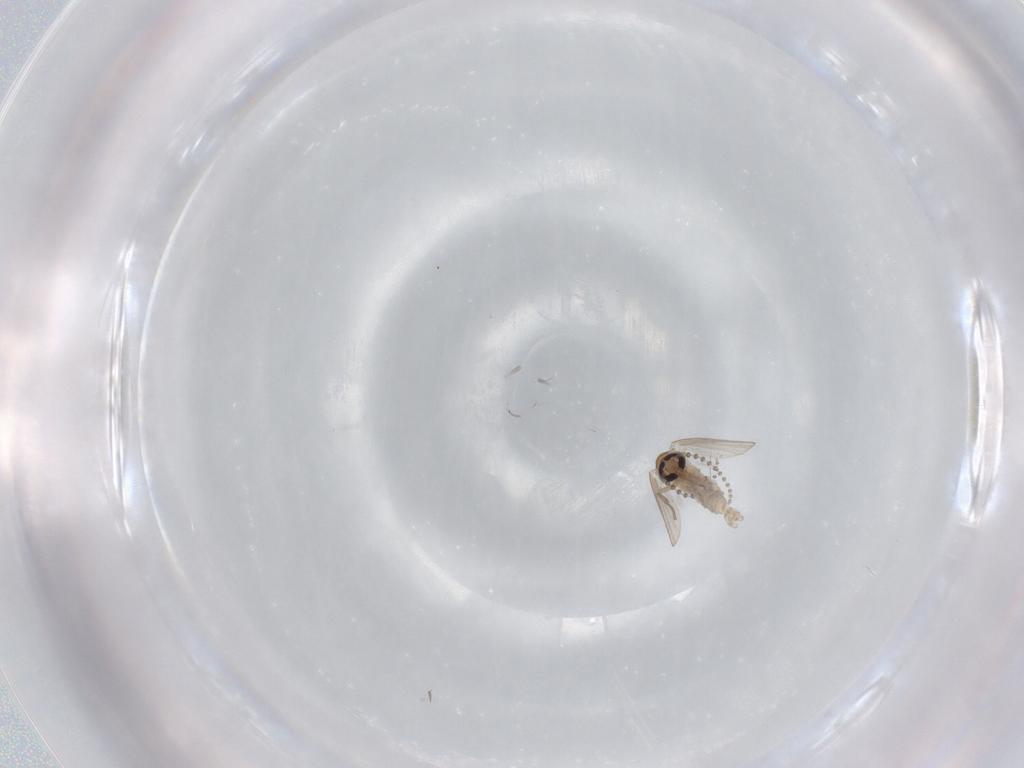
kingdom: Animalia
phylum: Arthropoda
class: Insecta
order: Diptera
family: Psychodidae
